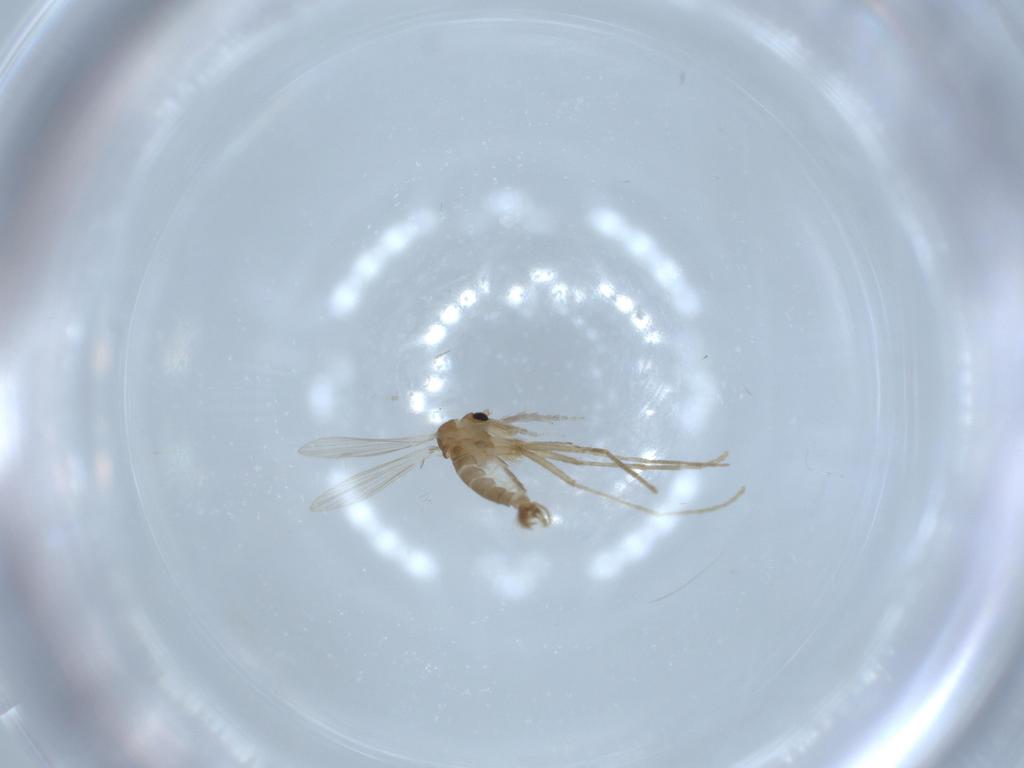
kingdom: Animalia
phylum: Arthropoda
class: Insecta
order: Diptera
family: Psychodidae
